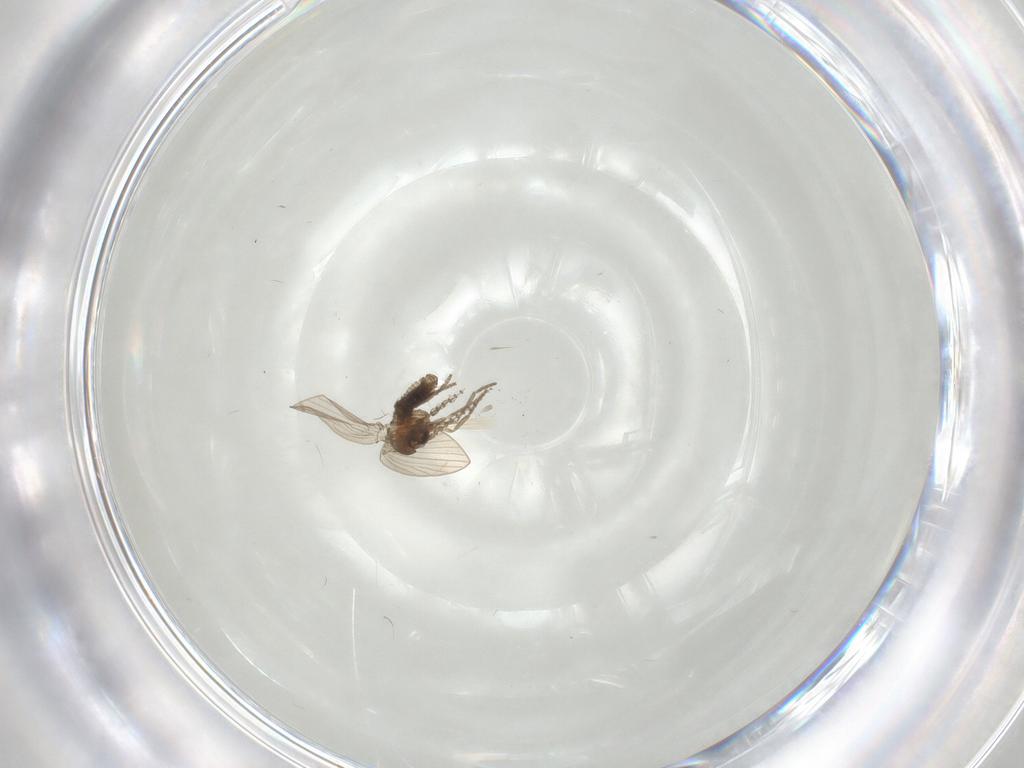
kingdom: Animalia
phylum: Arthropoda
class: Insecta
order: Diptera
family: Psychodidae
